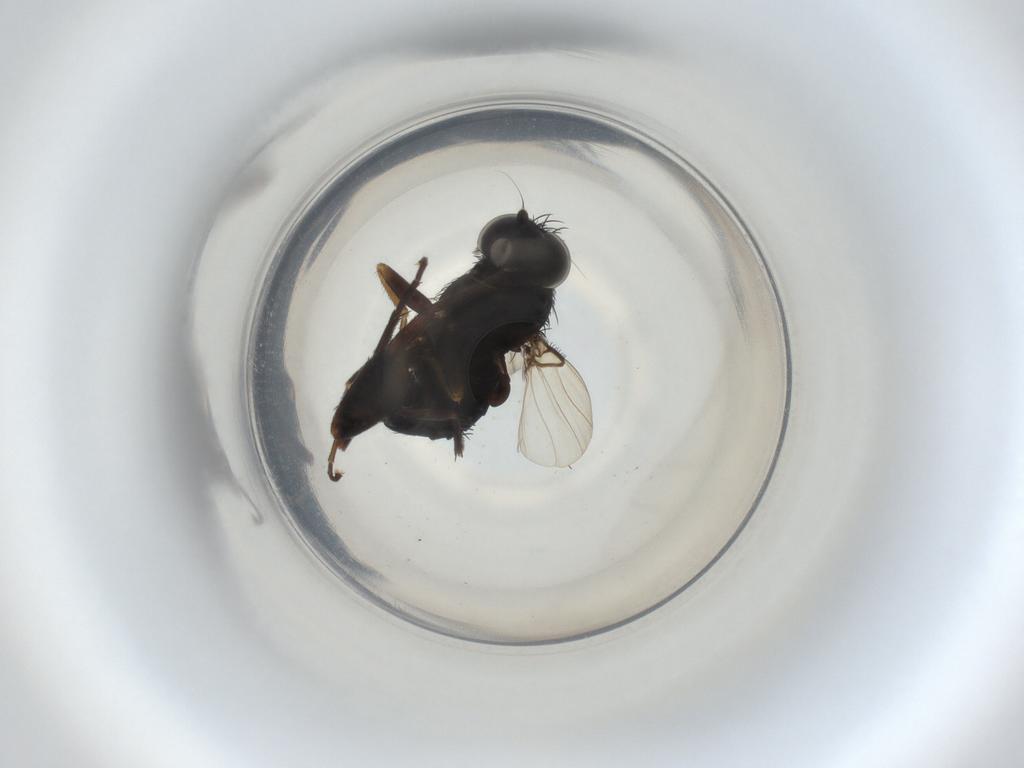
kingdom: Animalia
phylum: Arthropoda
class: Insecta
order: Diptera
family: Phoridae
